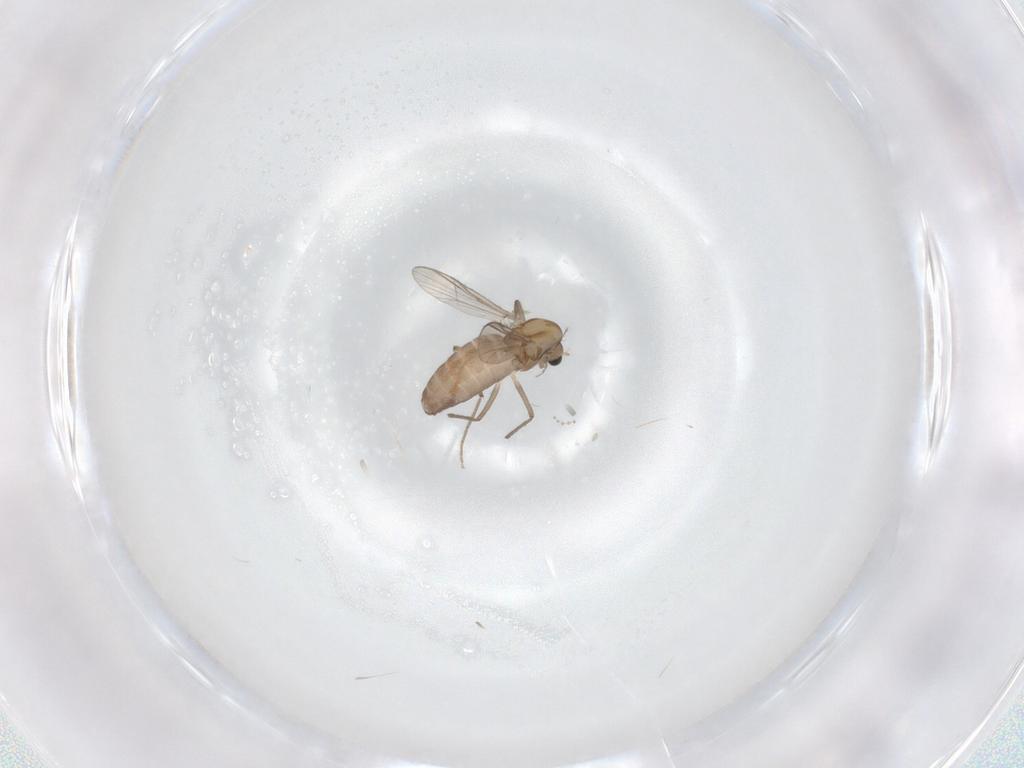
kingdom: Animalia
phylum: Arthropoda
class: Insecta
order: Diptera
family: Chironomidae
